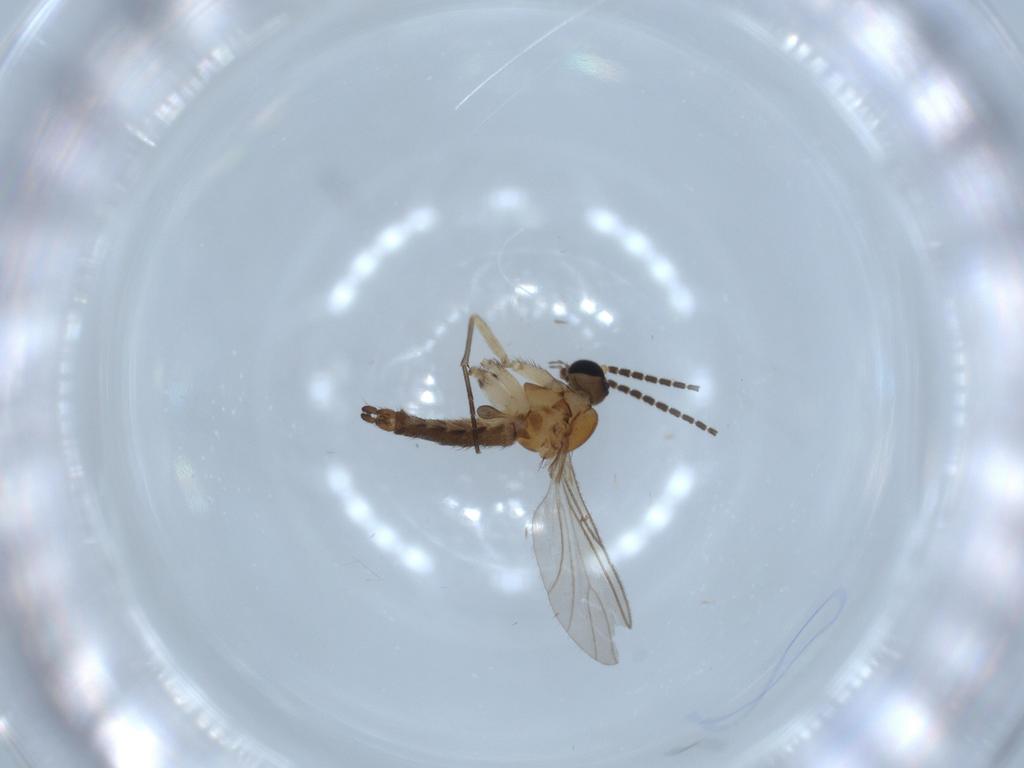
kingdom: Animalia
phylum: Arthropoda
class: Insecta
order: Diptera
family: Sciaridae
